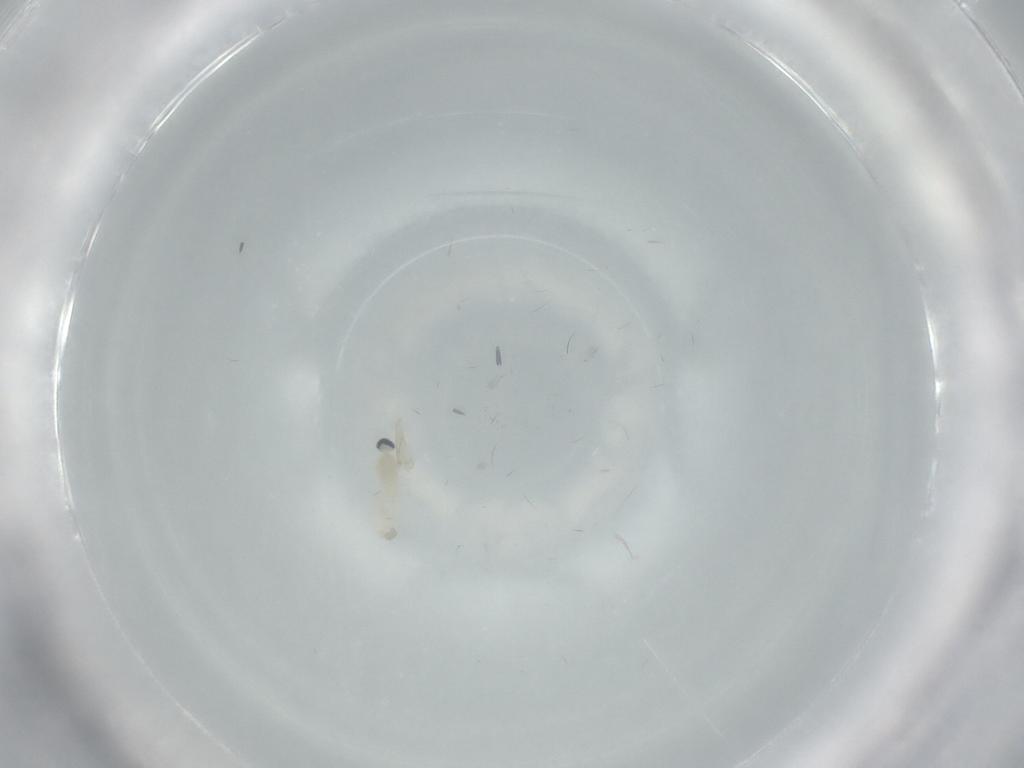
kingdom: Animalia
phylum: Arthropoda
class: Insecta
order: Diptera
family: Cecidomyiidae
